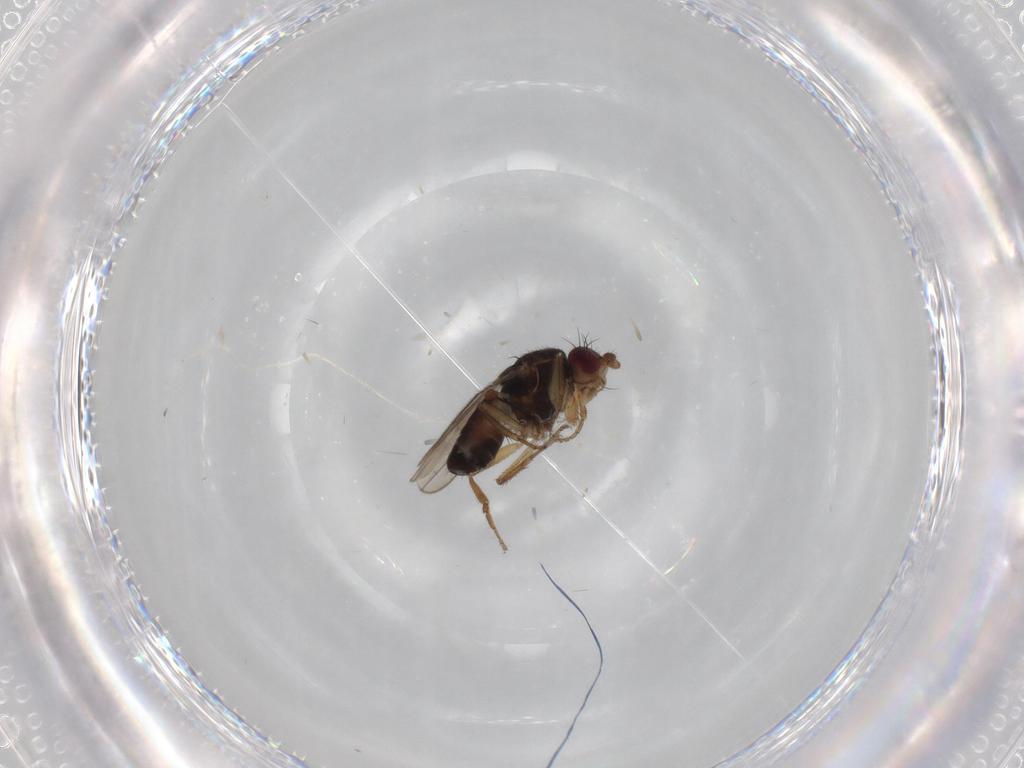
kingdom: Animalia
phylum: Arthropoda
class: Insecta
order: Diptera
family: Sphaeroceridae
